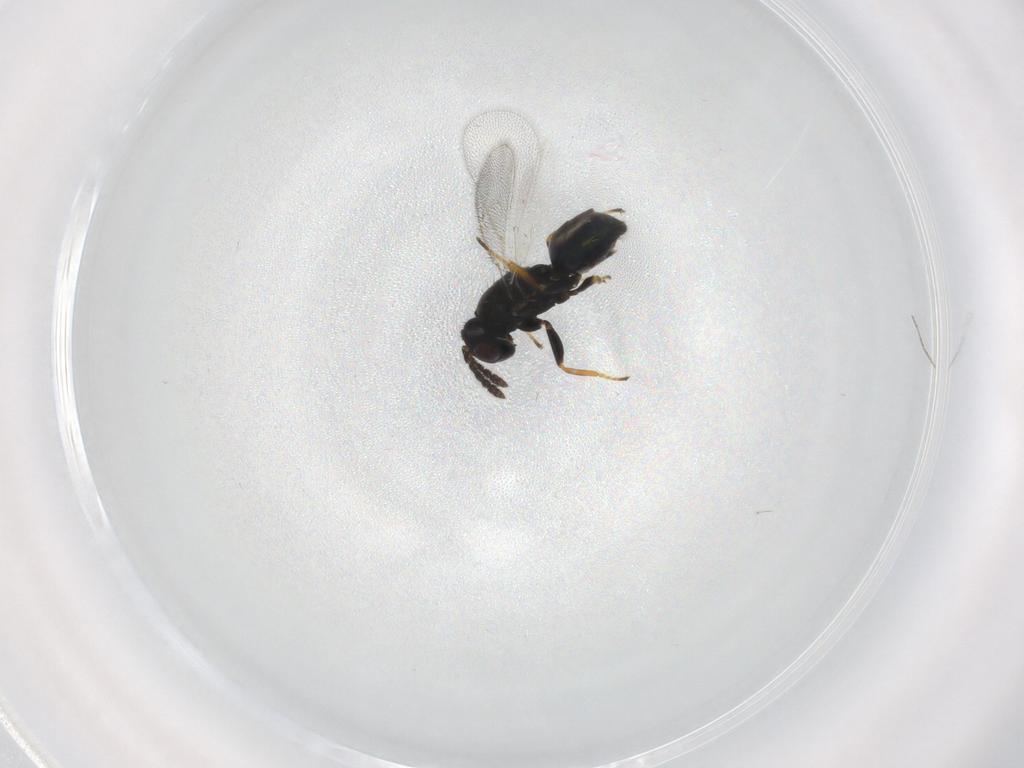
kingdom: Animalia
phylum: Arthropoda
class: Insecta
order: Hymenoptera
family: Eulophidae
